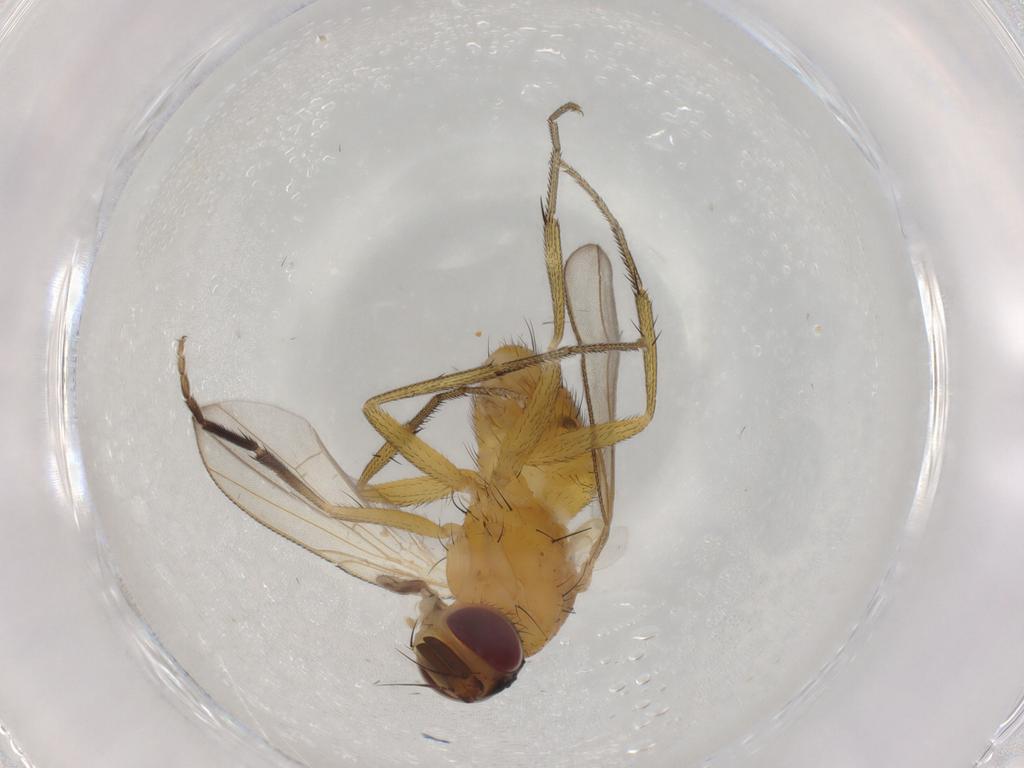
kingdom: Animalia
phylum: Arthropoda
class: Insecta
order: Diptera
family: Muscidae
